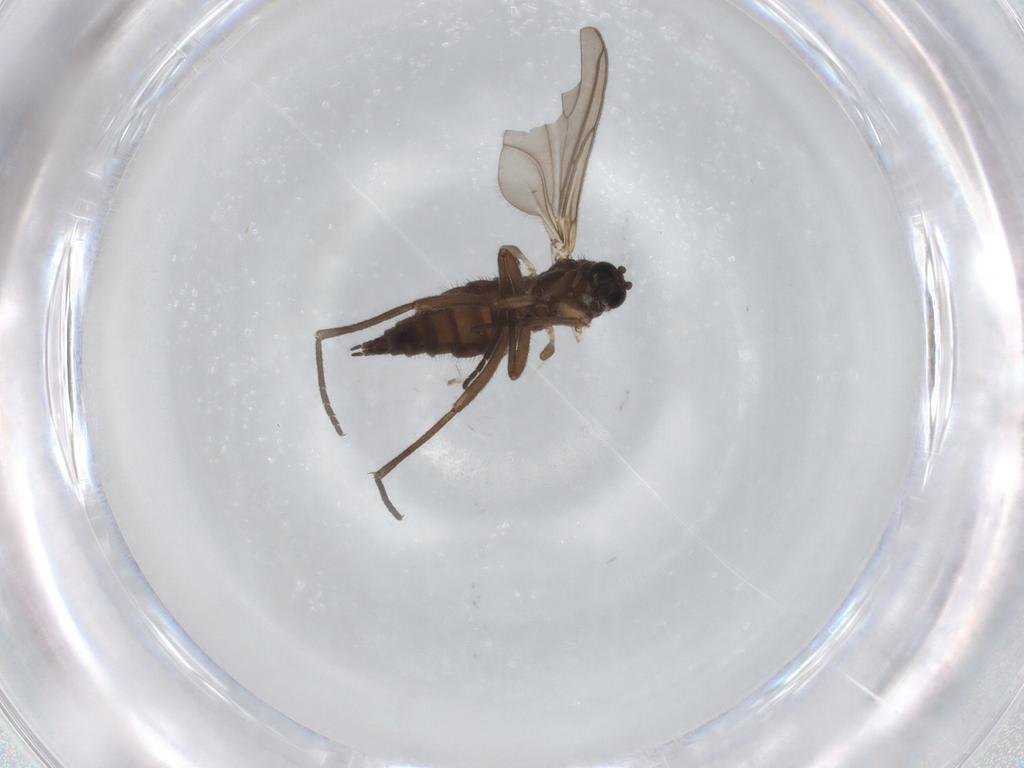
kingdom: Animalia
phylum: Arthropoda
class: Insecta
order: Diptera
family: Sciaridae
